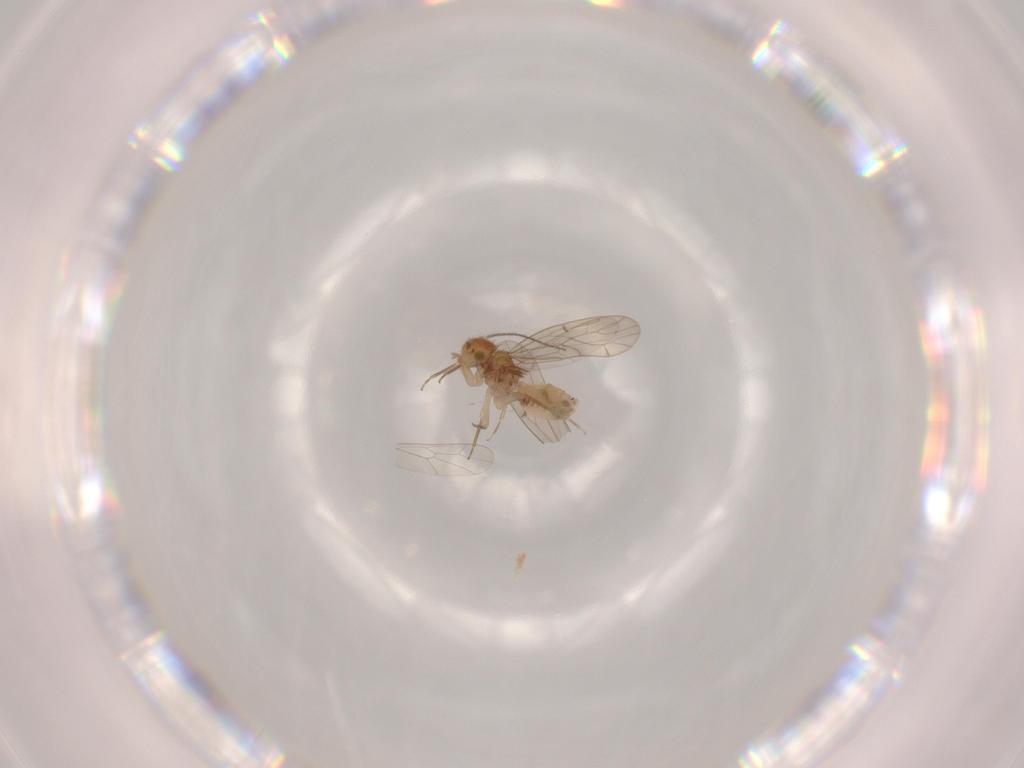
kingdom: Animalia
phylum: Arthropoda
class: Insecta
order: Psocodea
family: Ectopsocidae
